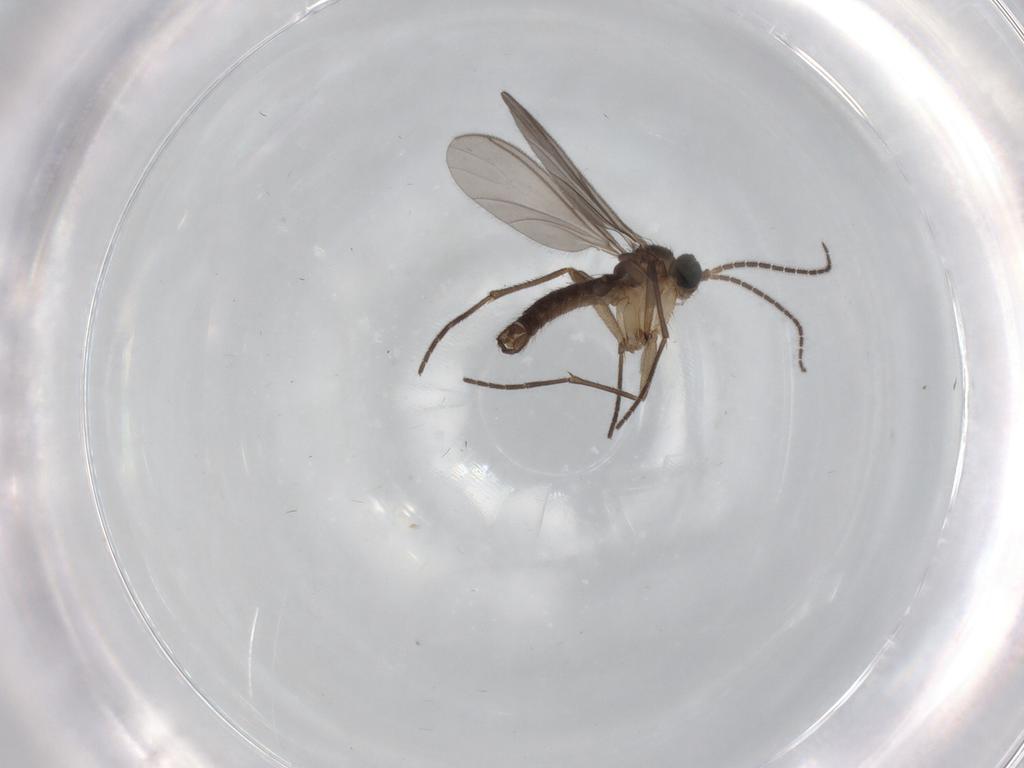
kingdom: Animalia
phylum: Arthropoda
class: Insecta
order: Diptera
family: Sciaridae
